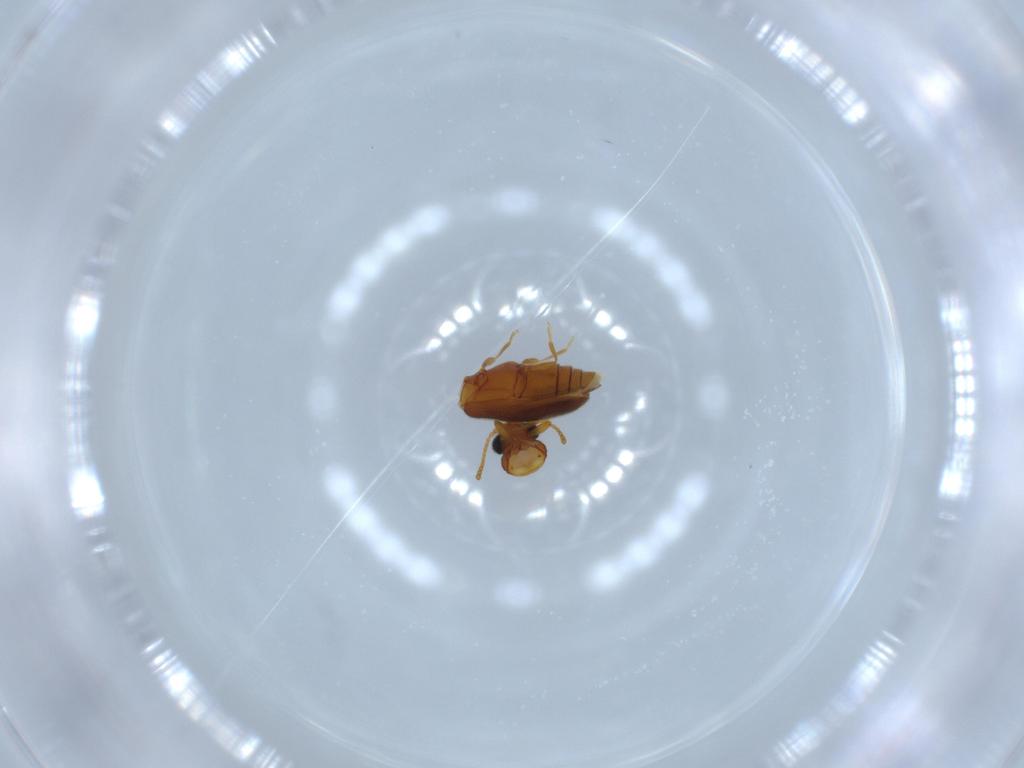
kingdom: Animalia
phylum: Arthropoda
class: Insecta
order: Coleoptera
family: Aderidae
